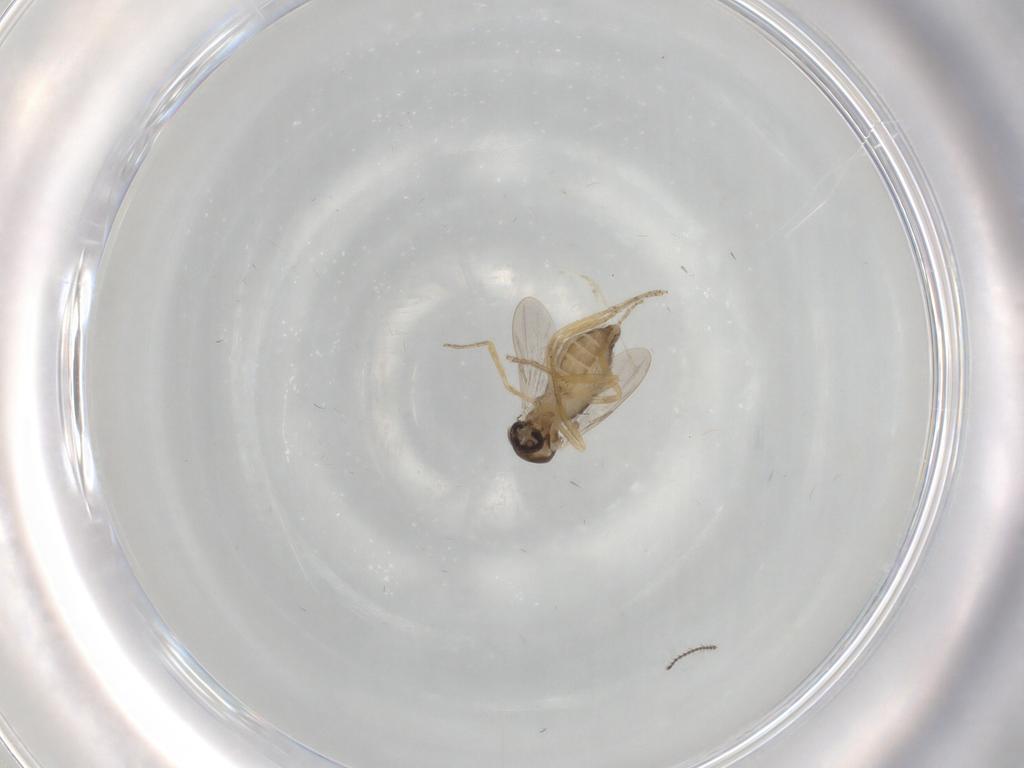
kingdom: Animalia
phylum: Arthropoda
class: Insecta
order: Diptera
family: Ceratopogonidae
